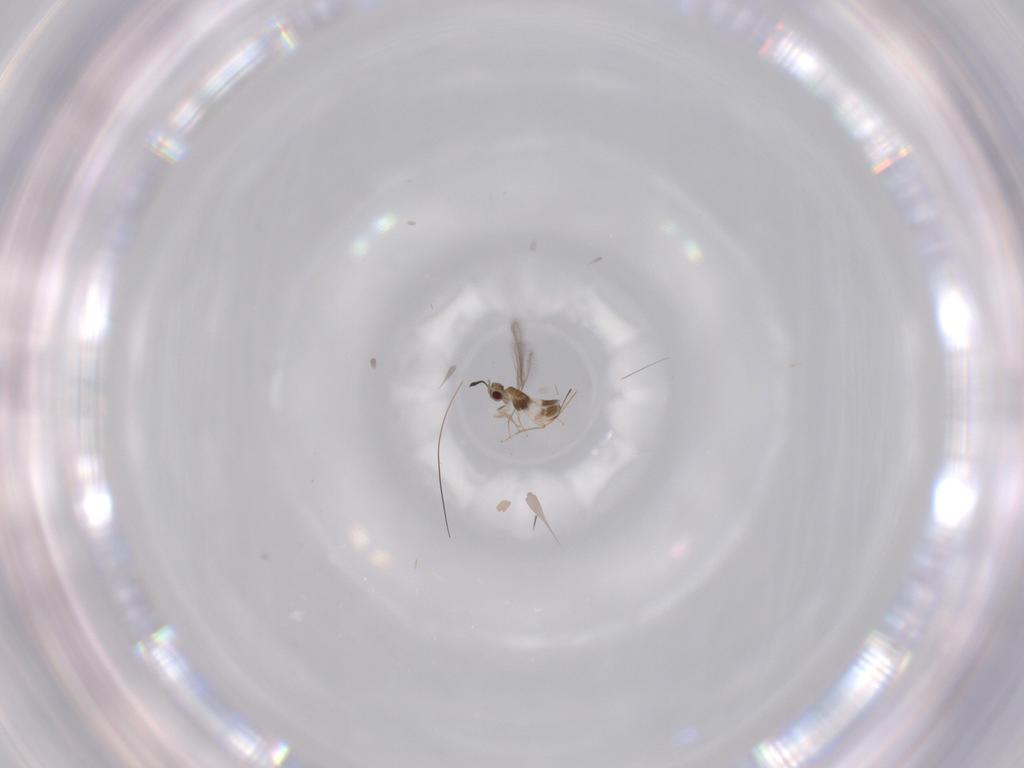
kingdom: Animalia
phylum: Arthropoda
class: Insecta
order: Hymenoptera
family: Mymaridae
